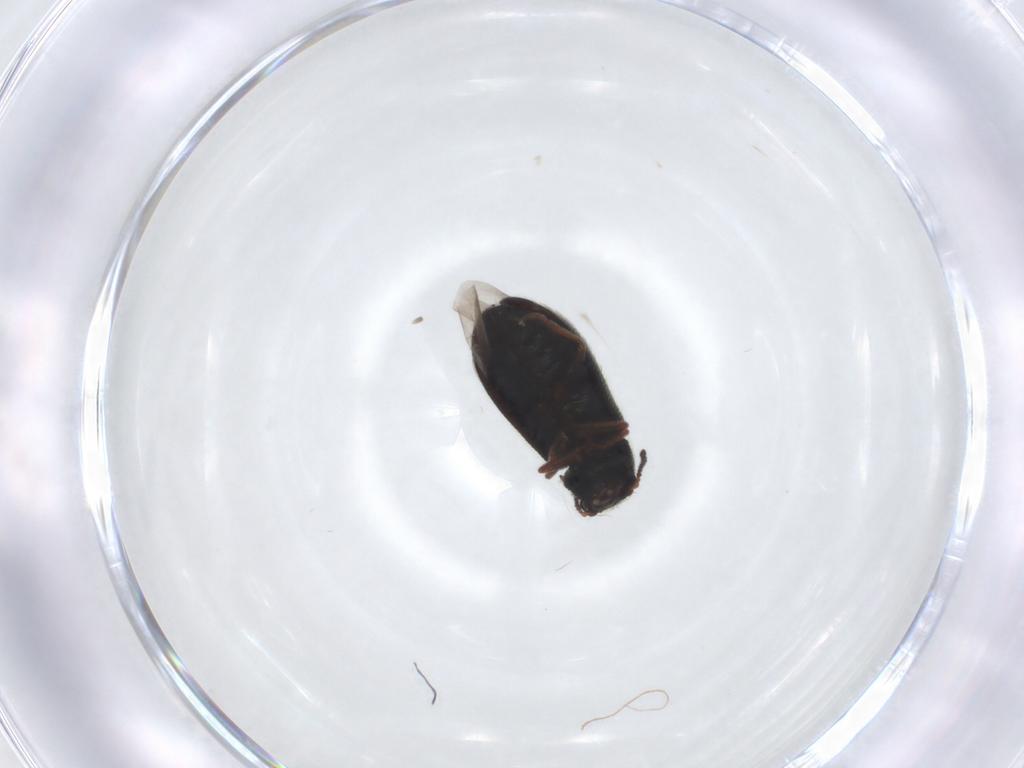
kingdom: Animalia
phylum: Arthropoda
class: Insecta
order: Coleoptera
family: Melyridae
